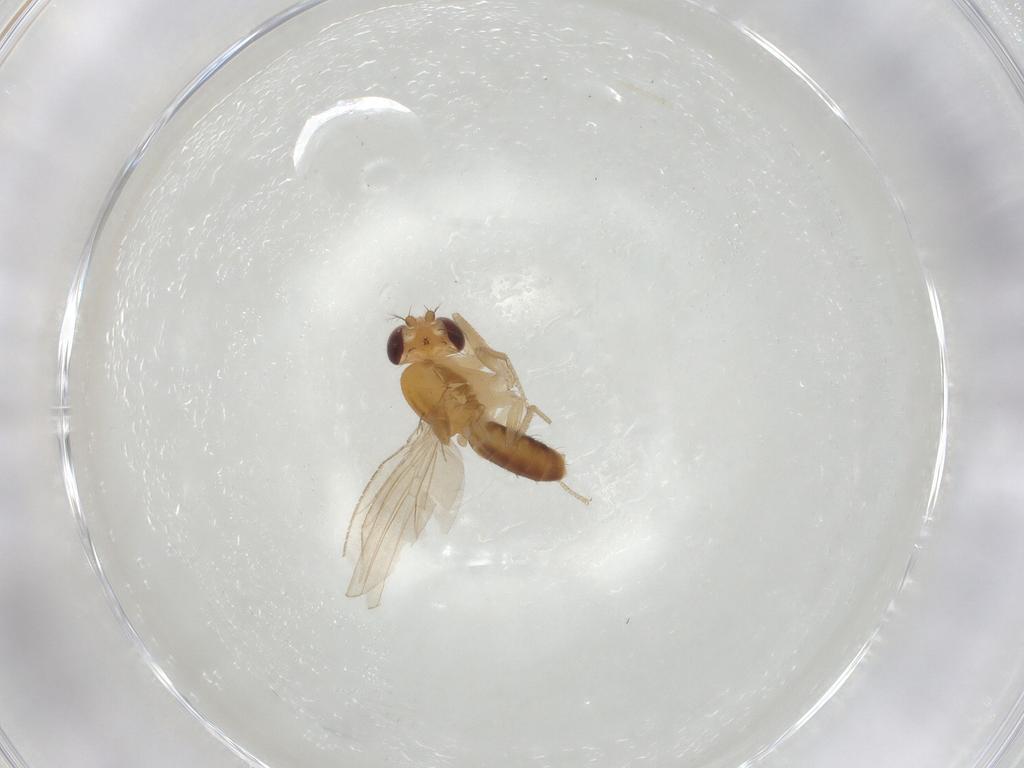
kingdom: Animalia
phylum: Arthropoda
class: Insecta
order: Diptera
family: Drosophilidae
